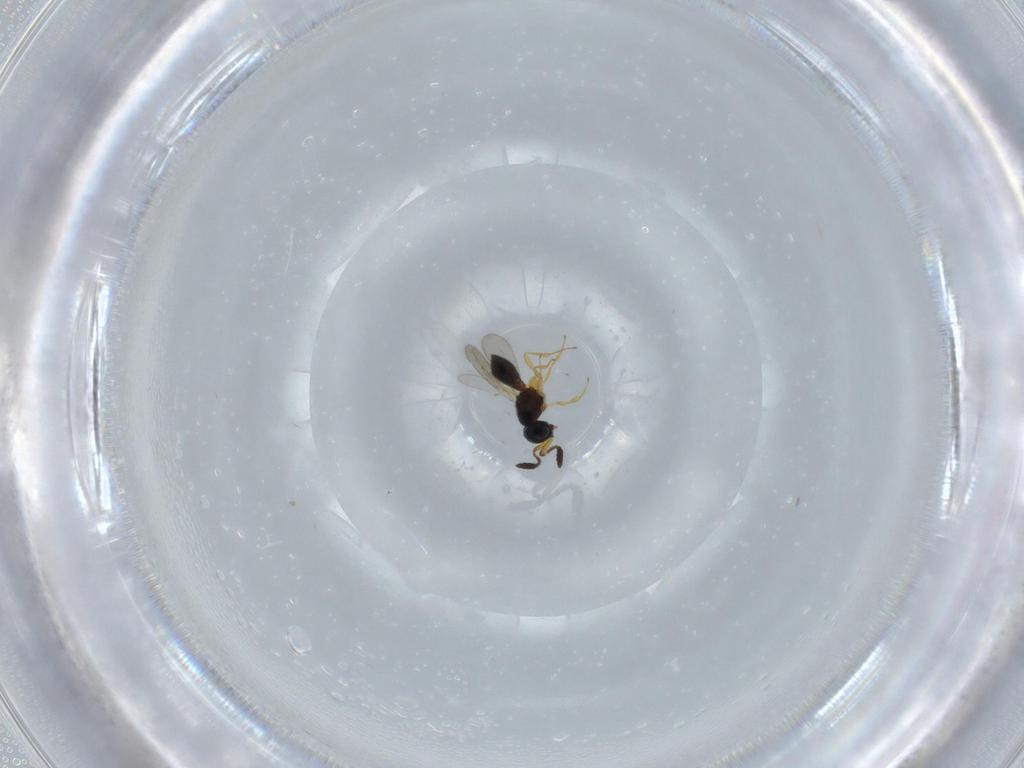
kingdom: Animalia
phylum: Arthropoda
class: Insecta
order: Hymenoptera
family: Scelionidae
